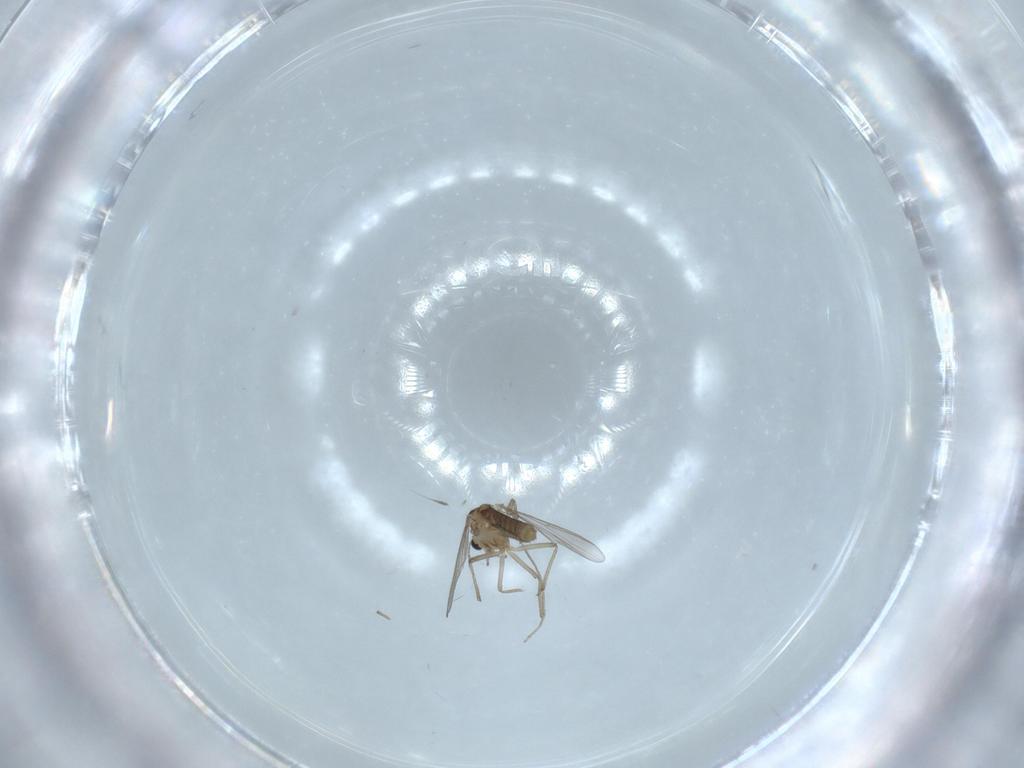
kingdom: Animalia
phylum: Arthropoda
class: Insecta
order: Diptera
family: Chironomidae
